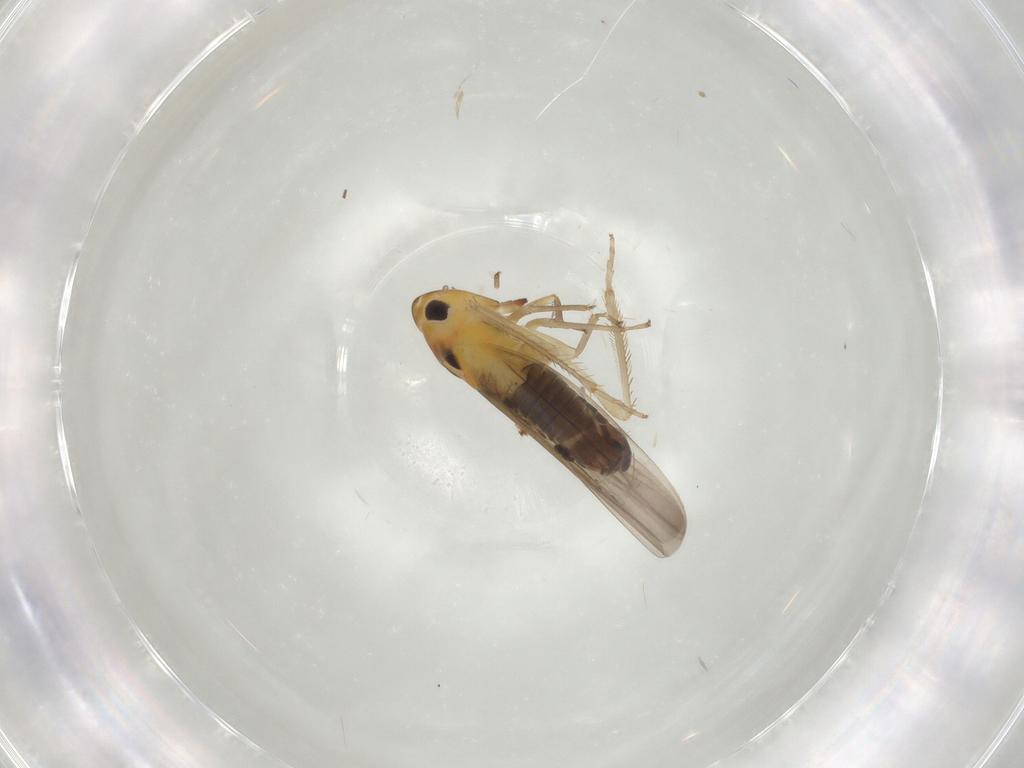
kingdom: Animalia
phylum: Arthropoda
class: Insecta
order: Hemiptera
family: Cicadellidae
